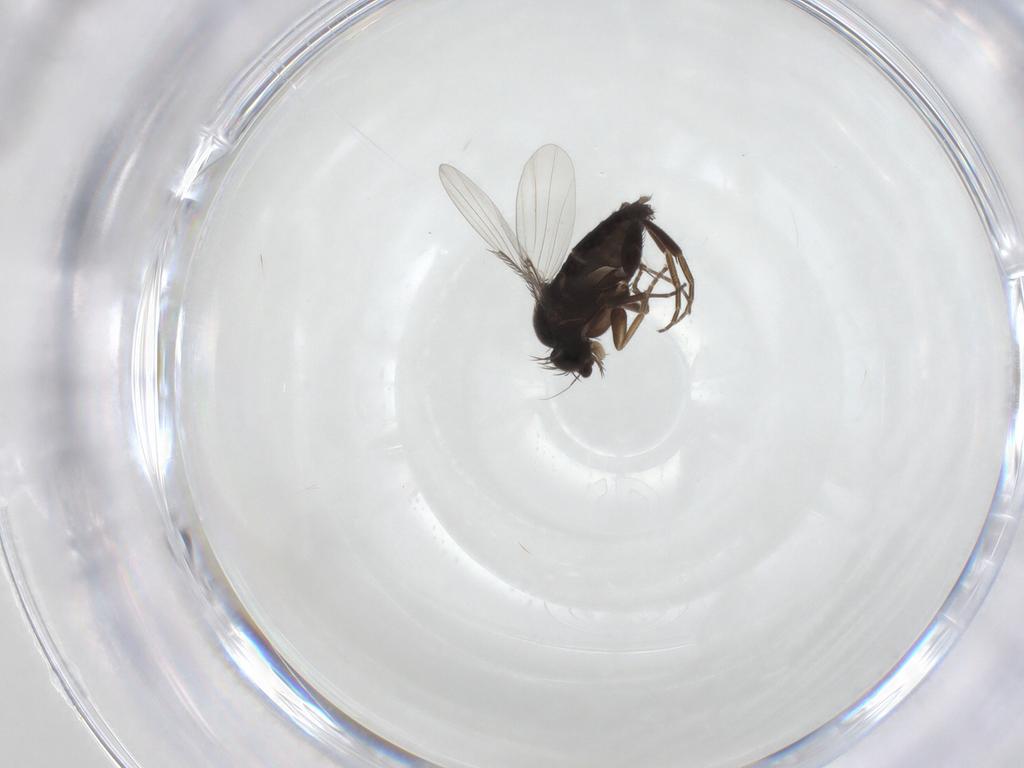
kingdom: Animalia
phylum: Arthropoda
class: Insecta
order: Diptera
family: Phoridae
